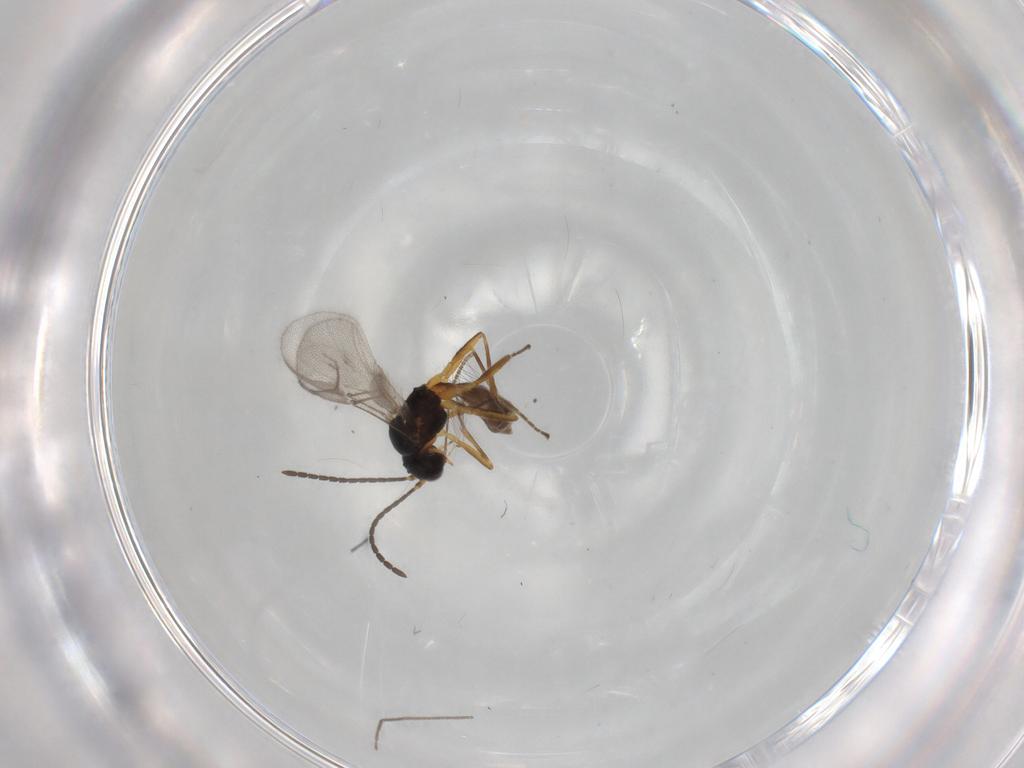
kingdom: Animalia
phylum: Arthropoda
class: Insecta
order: Hymenoptera
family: Braconidae
